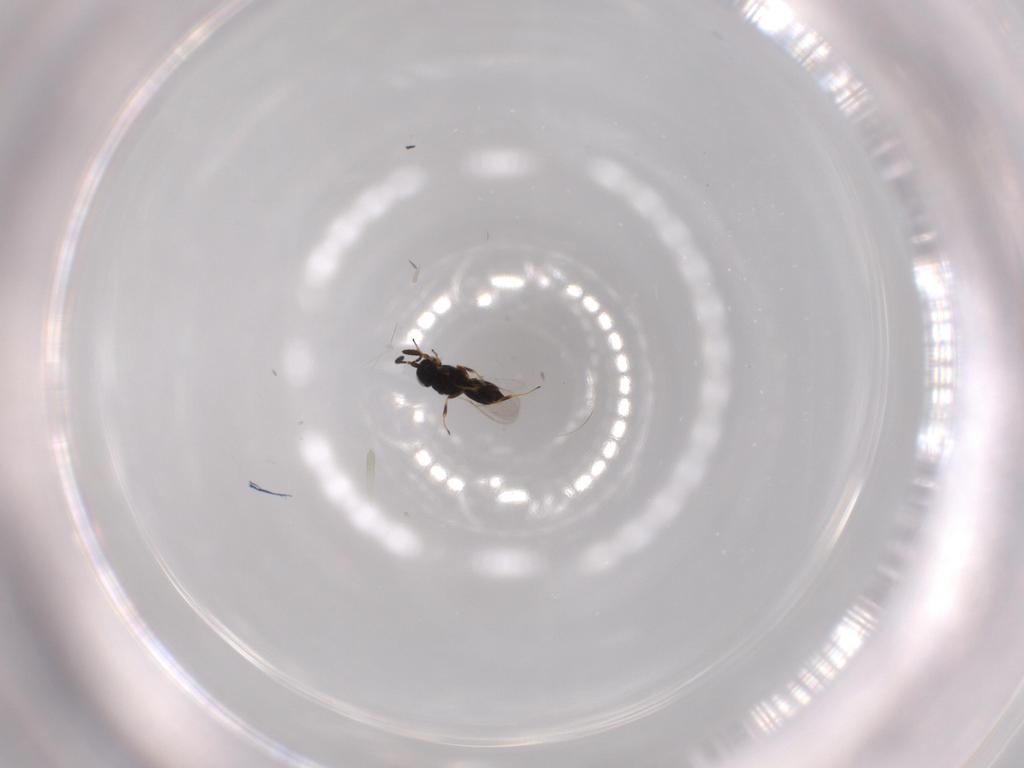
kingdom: Animalia
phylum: Arthropoda
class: Insecta
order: Hymenoptera
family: Scelionidae
